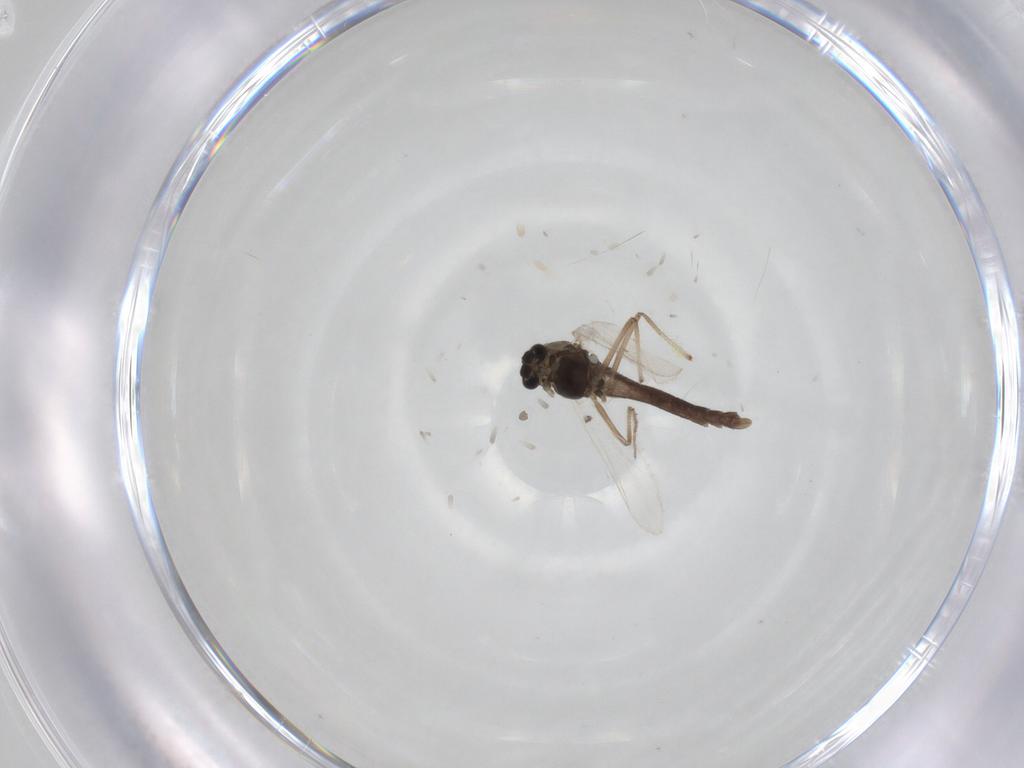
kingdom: Animalia
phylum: Arthropoda
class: Insecta
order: Diptera
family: Chironomidae
